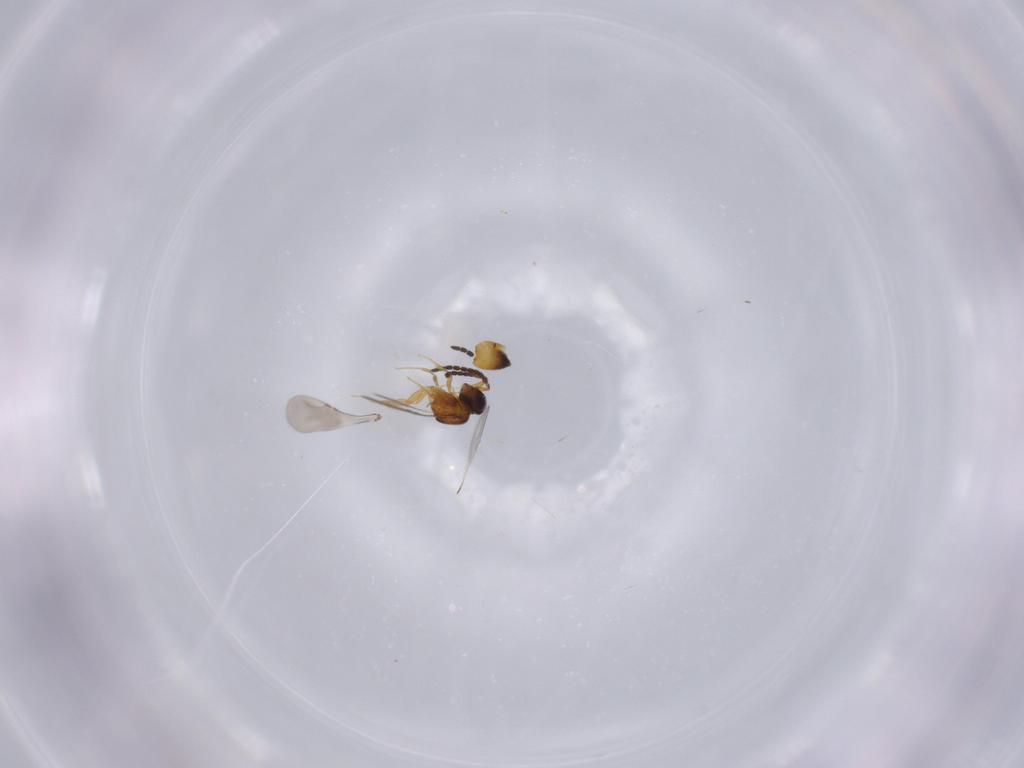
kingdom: Animalia
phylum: Arthropoda
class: Insecta
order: Hymenoptera
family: Ceraphronidae
